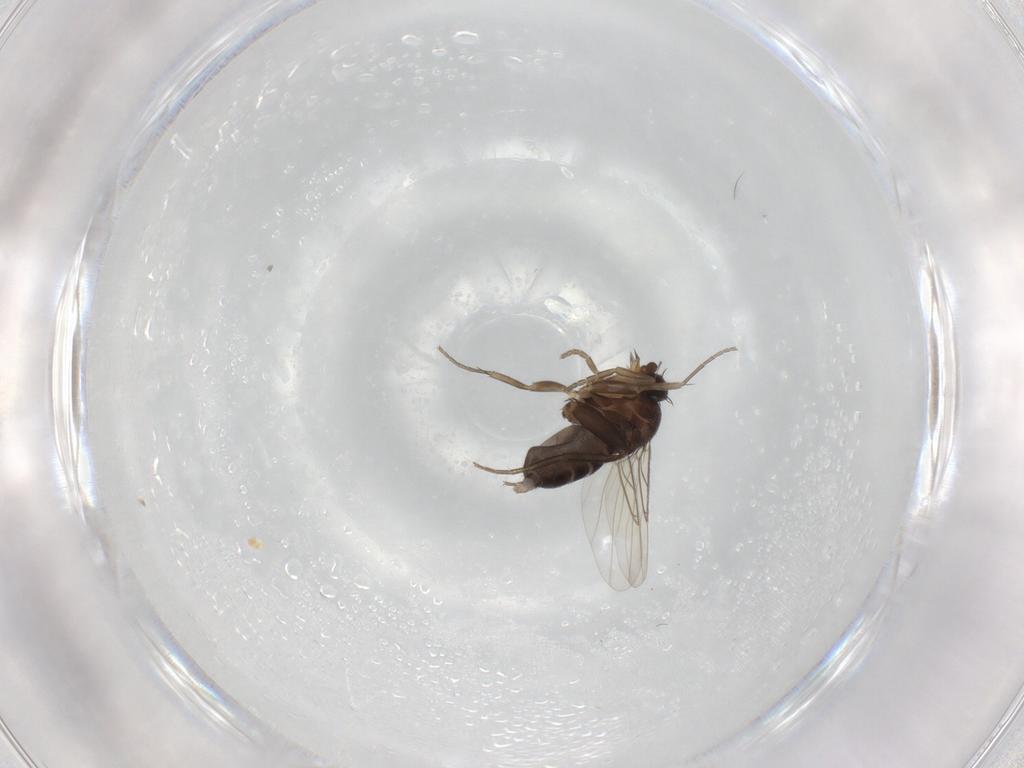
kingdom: Animalia
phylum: Arthropoda
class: Insecta
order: Diptera
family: Phoridae
